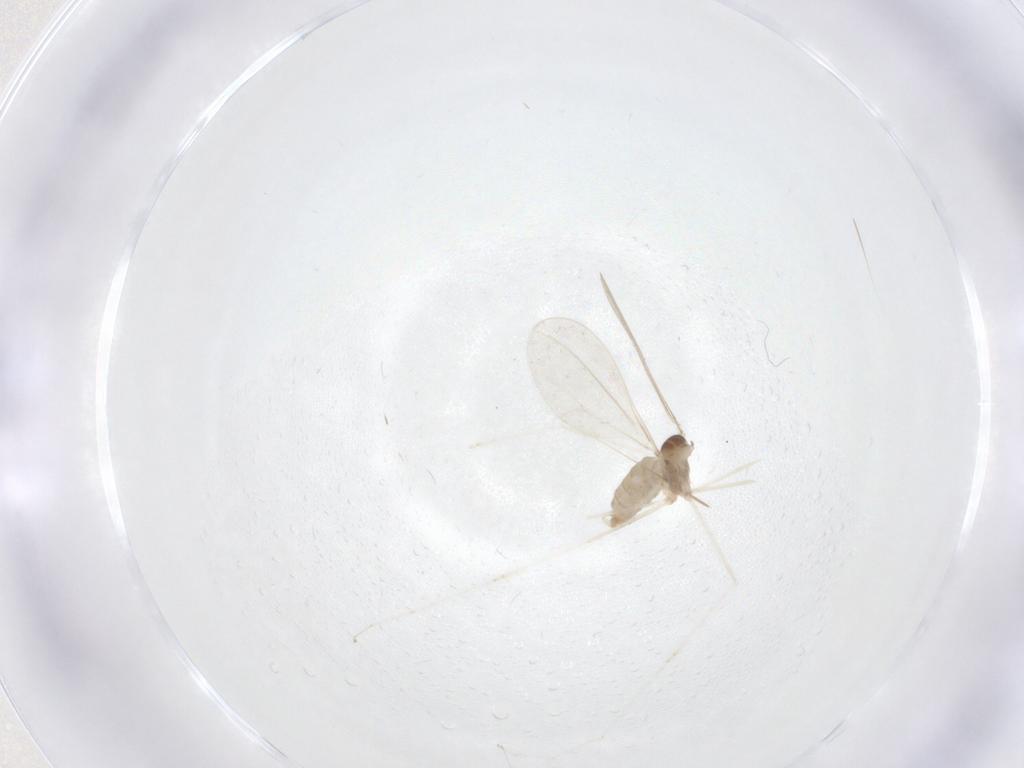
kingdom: Animalia
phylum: Arthropoda
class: Insecta
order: Diptera
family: Cecidomyiidae
